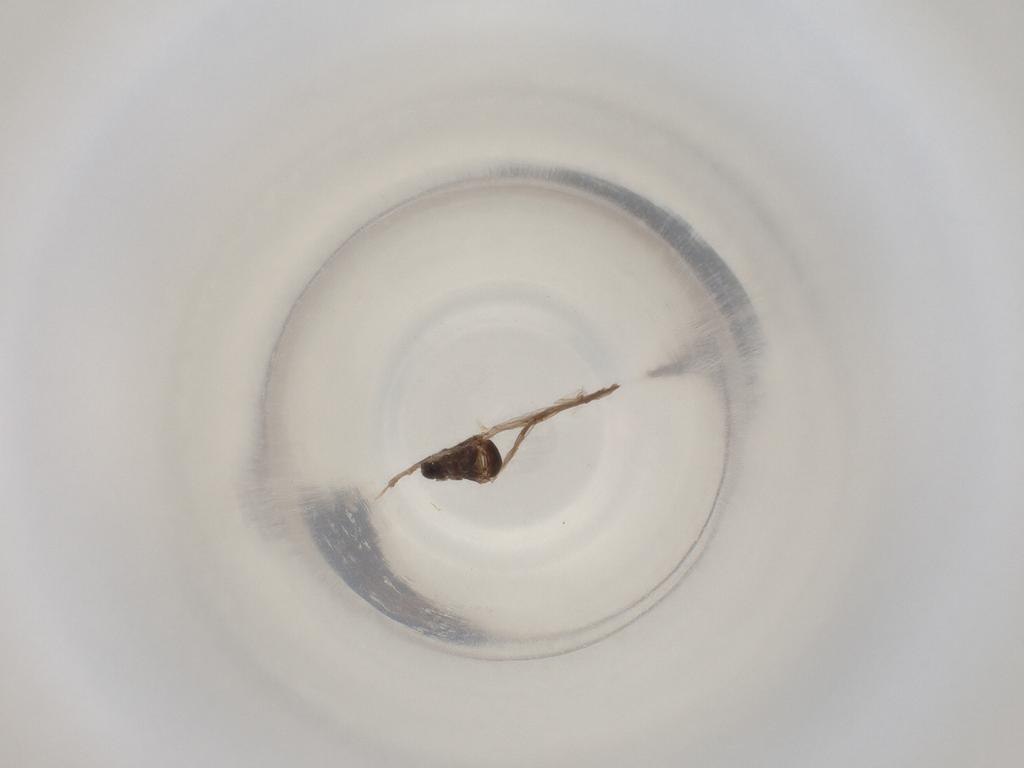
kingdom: Animalia
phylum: Arthropoda
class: Insecta
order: Diptera
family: Cecidomyiidae
